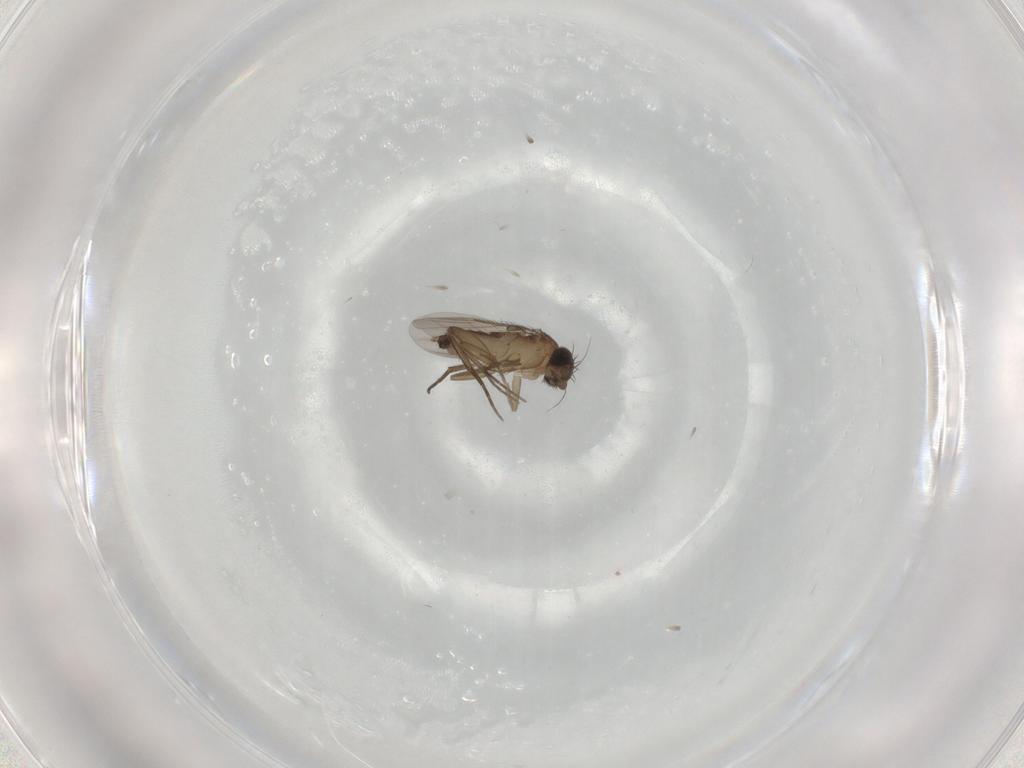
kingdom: Animalia
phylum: Arthropoda
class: Insecta
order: Diptera
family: Phoridae
